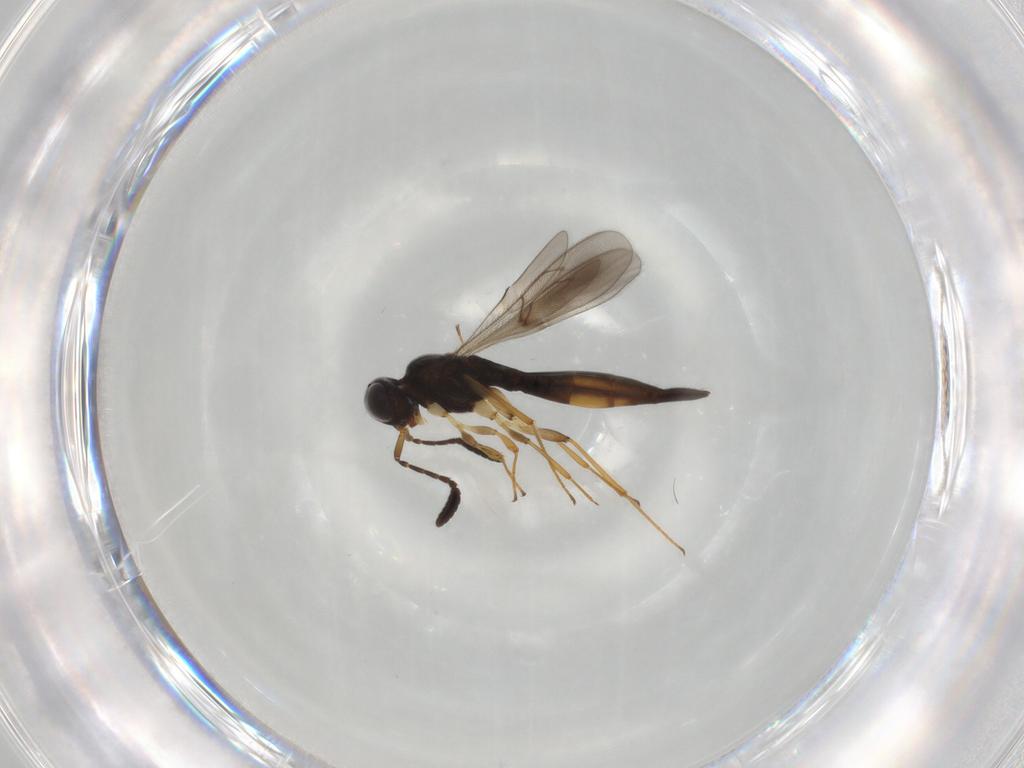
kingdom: Animalia
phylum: Arthropoda
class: Insecta
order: Hymenoptera
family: Scelionidae
